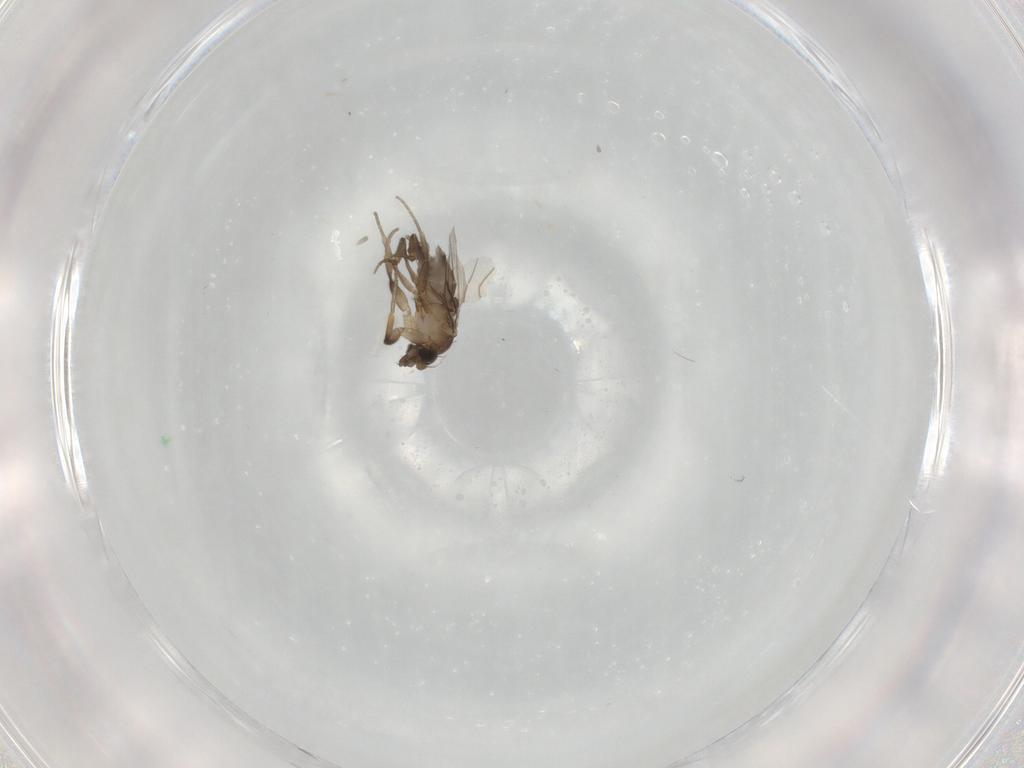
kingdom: Animalia
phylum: Arthropoda
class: Insecta
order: Diptera
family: Phoridae
